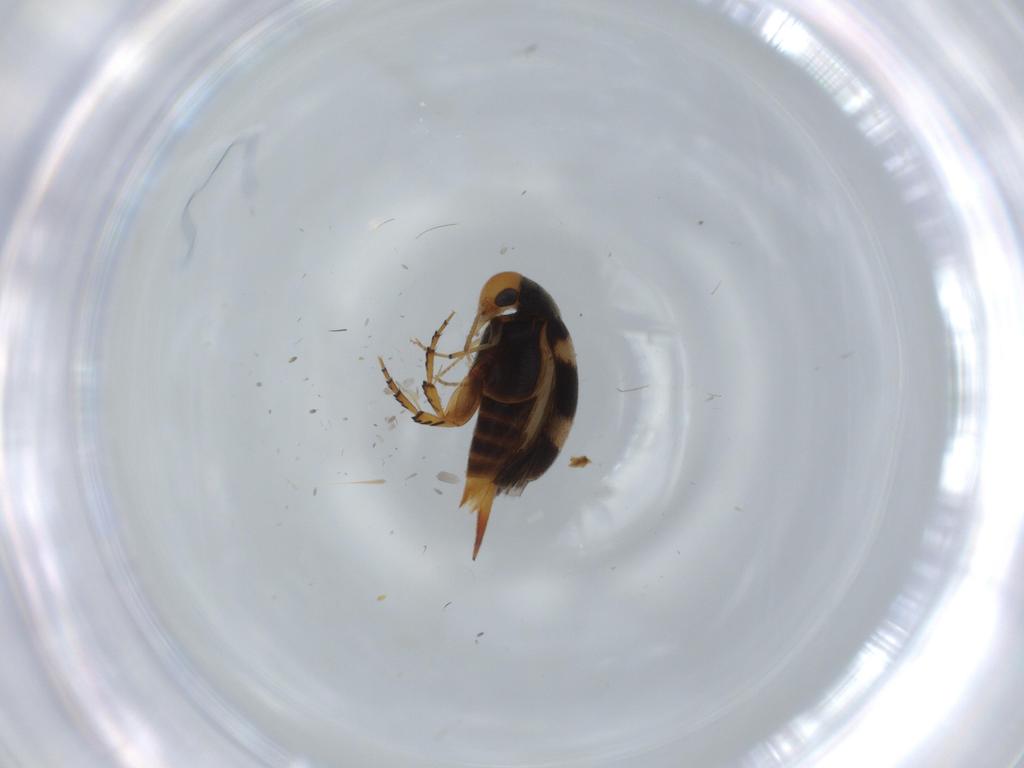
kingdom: Animalia
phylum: Arthropoda
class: Insecta
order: Coleoptera
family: Mordellidae
